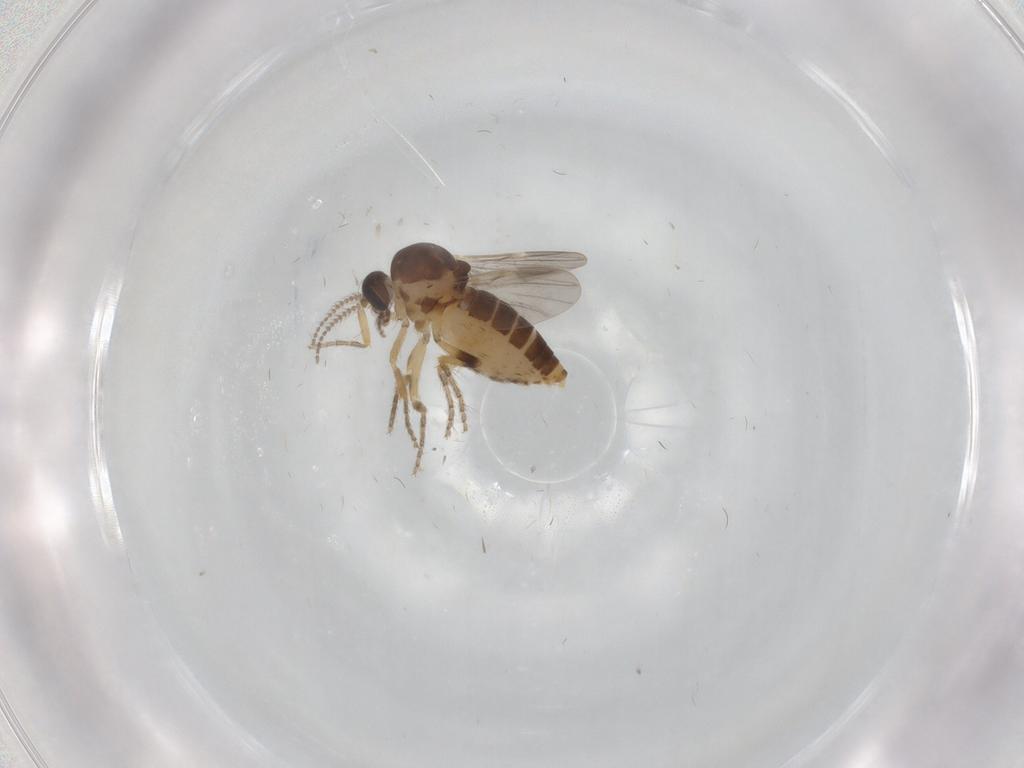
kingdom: Animalia
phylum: Arthropoda
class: Insecta
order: Diptera
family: Ceratopogonidae
